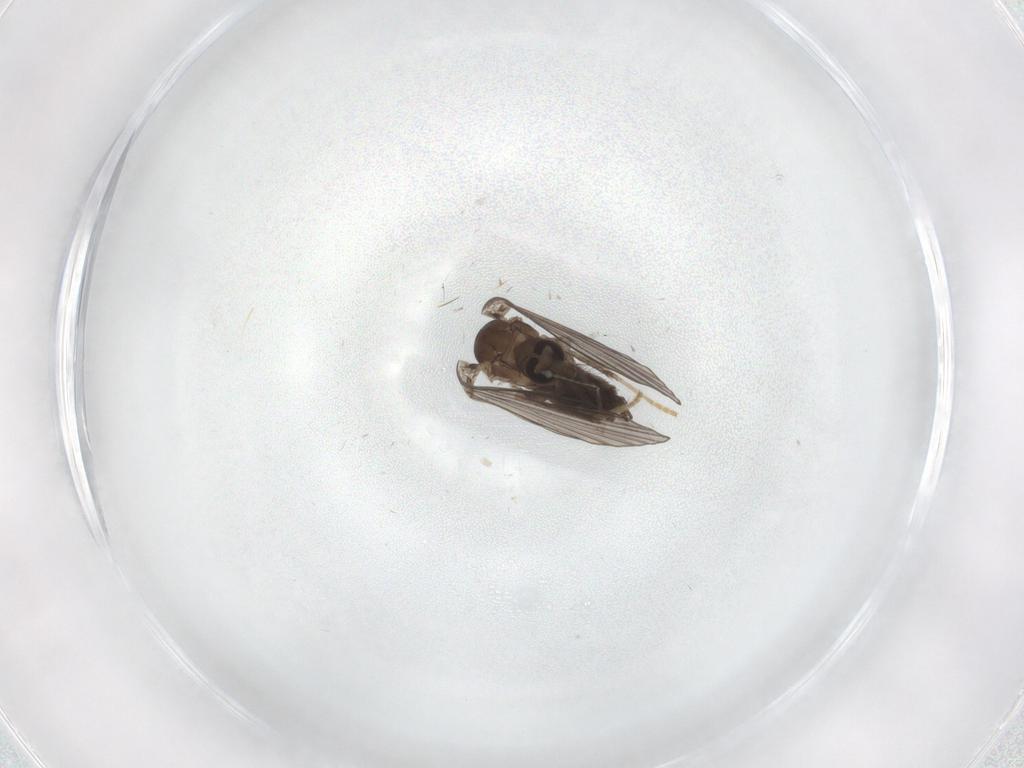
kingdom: Animalia
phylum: Arthropoda
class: Insecta
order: Diptera
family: Psychodidae
